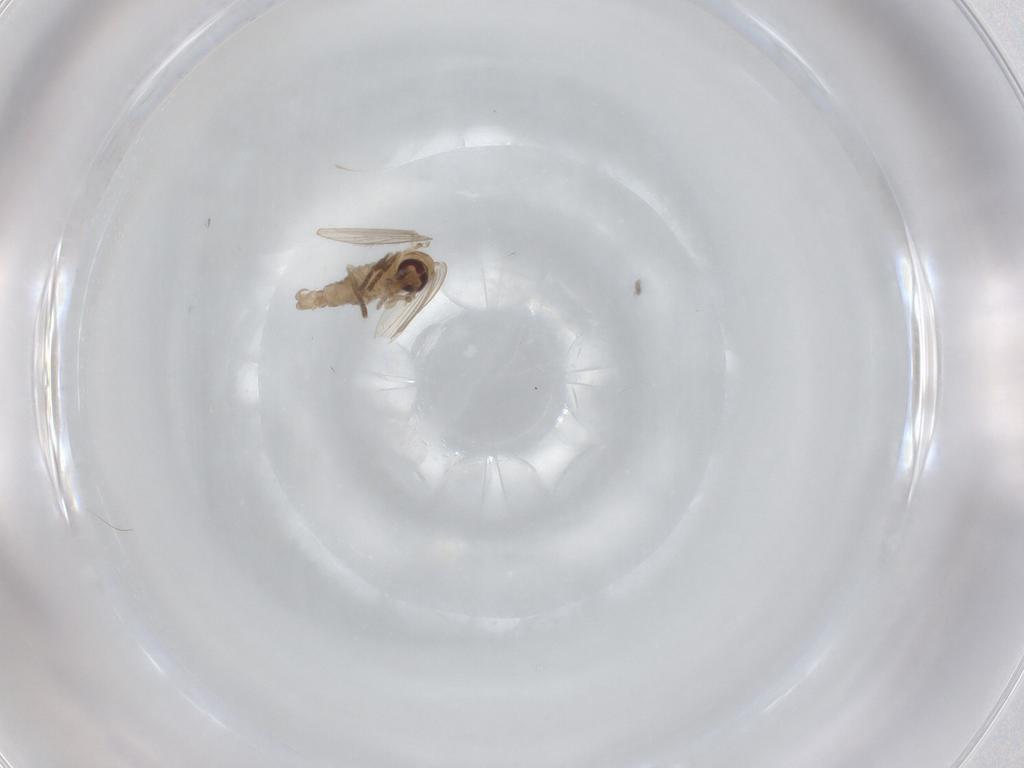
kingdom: Animalia
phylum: Arthropoda
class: Insecta
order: Diptera
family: Psychodidae
